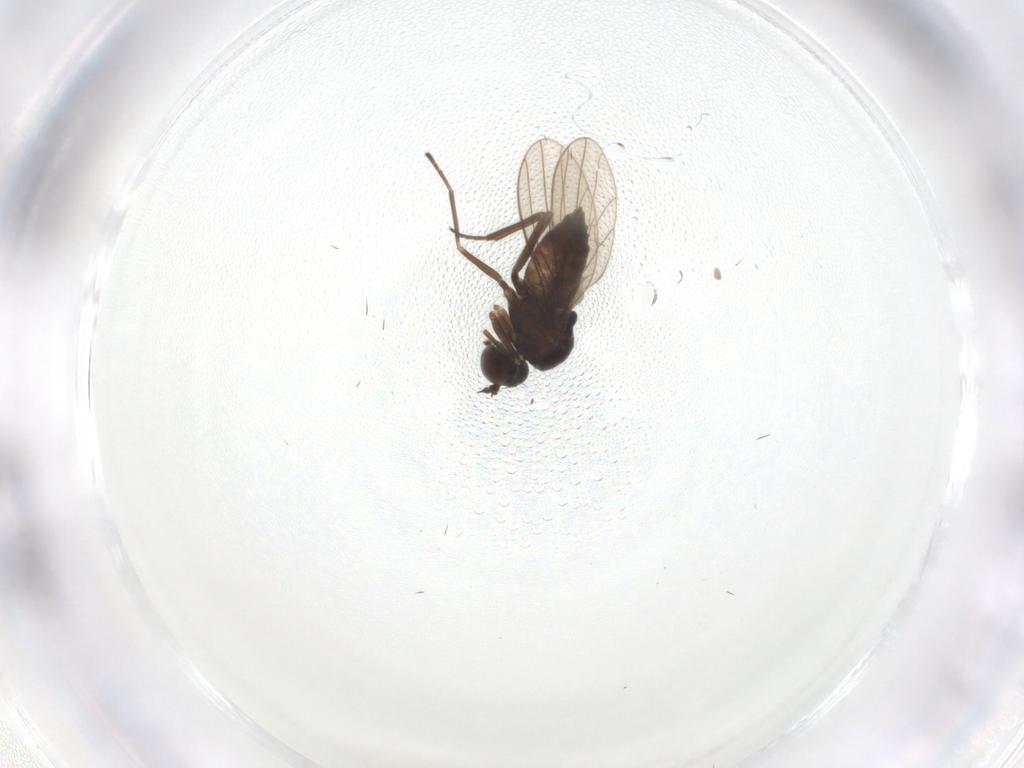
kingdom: Animalia
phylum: Arthropoda
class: Insecta
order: Diptera
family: Dolichopodidae
